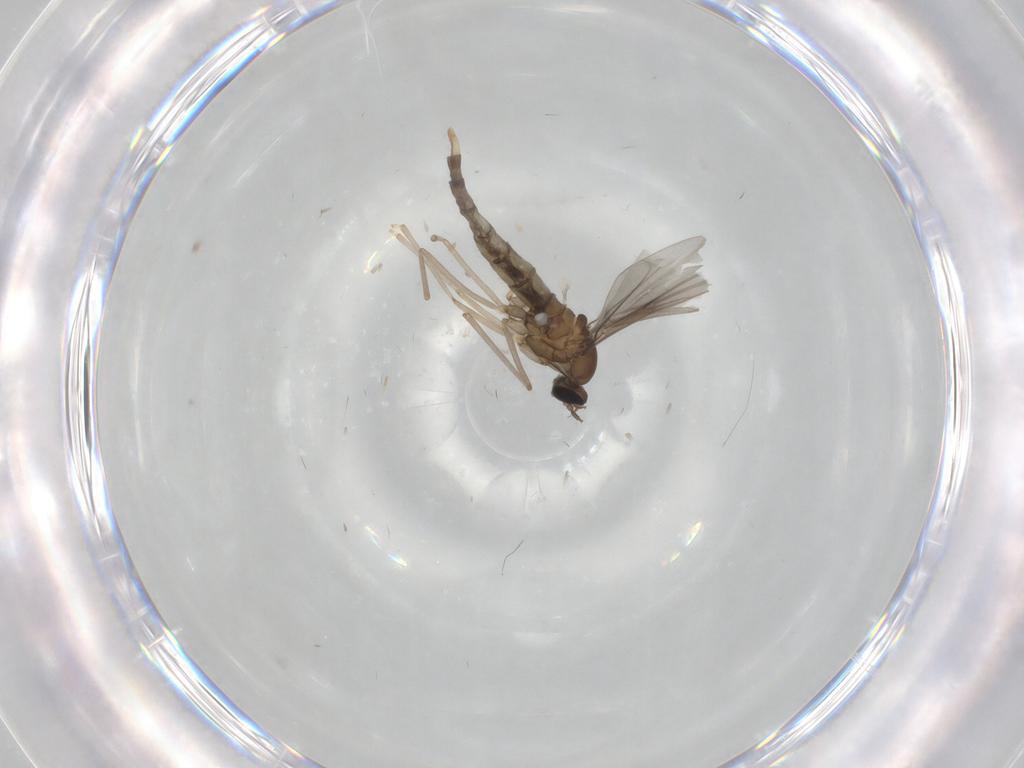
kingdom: Animalia
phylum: Arthropoda
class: Insecta
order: Diptera
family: Cecidomyiidae
